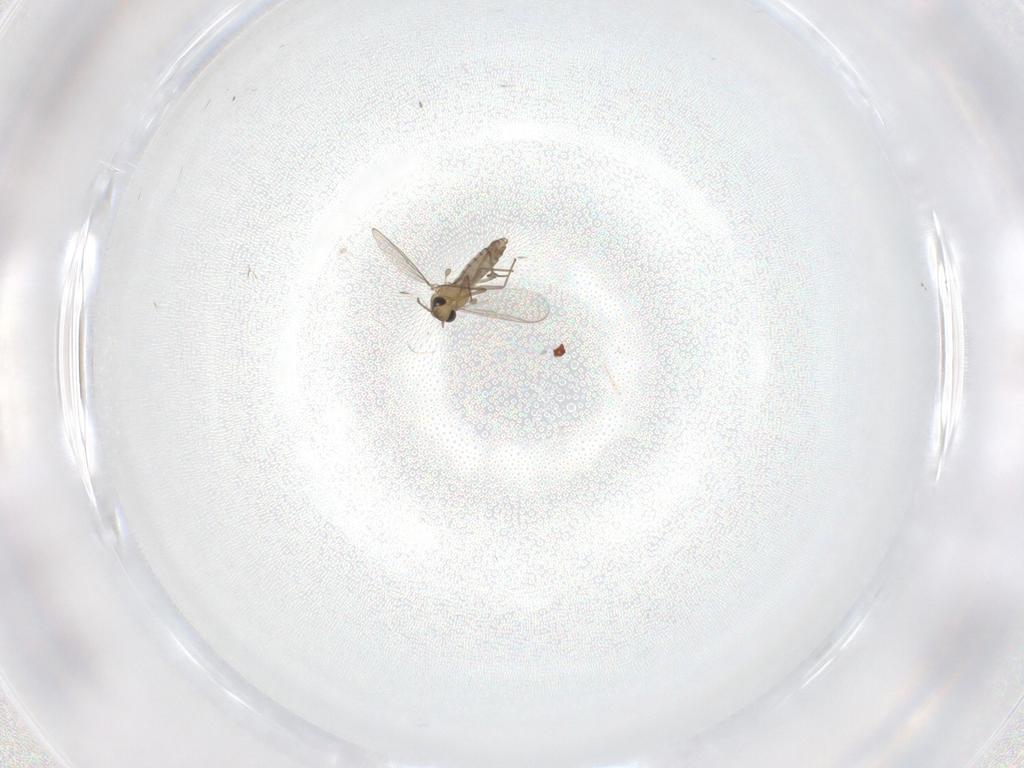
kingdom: Animalia
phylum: Arthropoda
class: Insecta
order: Diptera
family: Chironomidae
